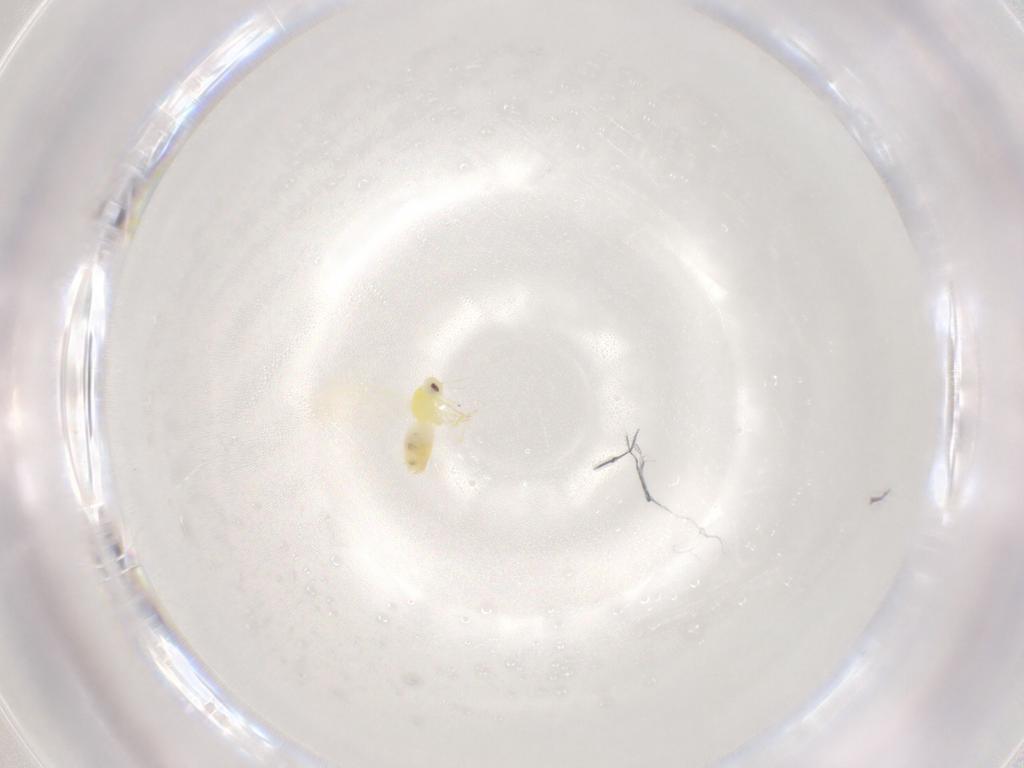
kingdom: Animalia
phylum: Arthropoda
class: Insecta
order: Hemiptera
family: Aleyrodidae
